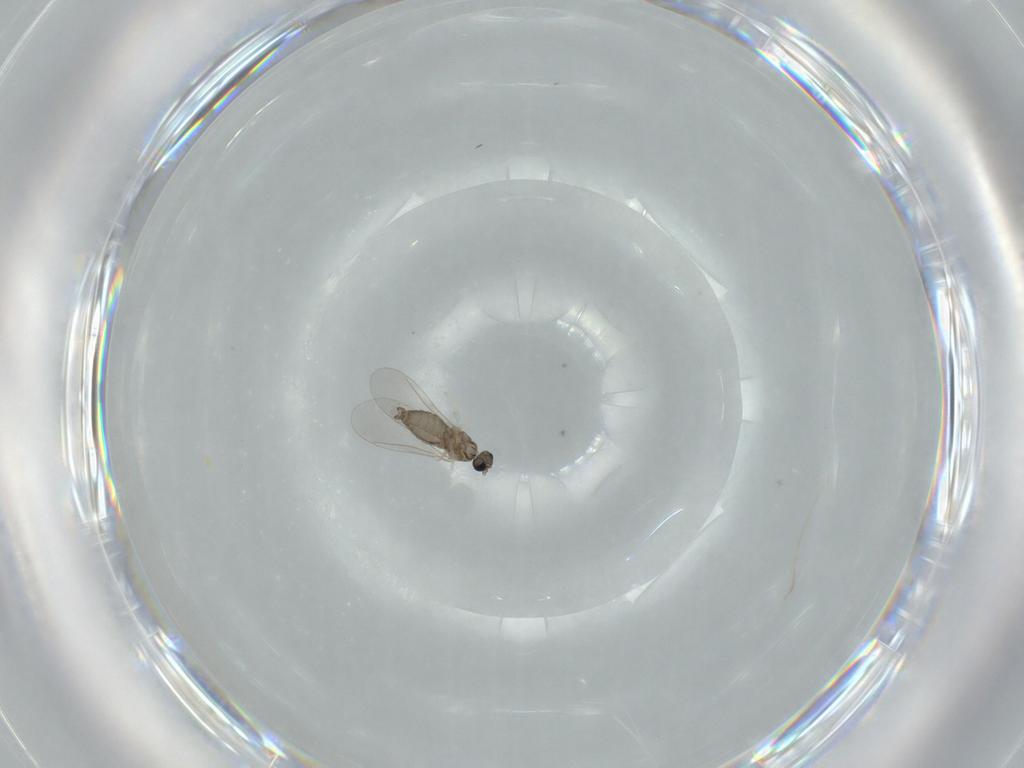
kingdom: Animalia
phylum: Arthropoda
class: Insecta
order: Diptera
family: Cecidomyiidae
